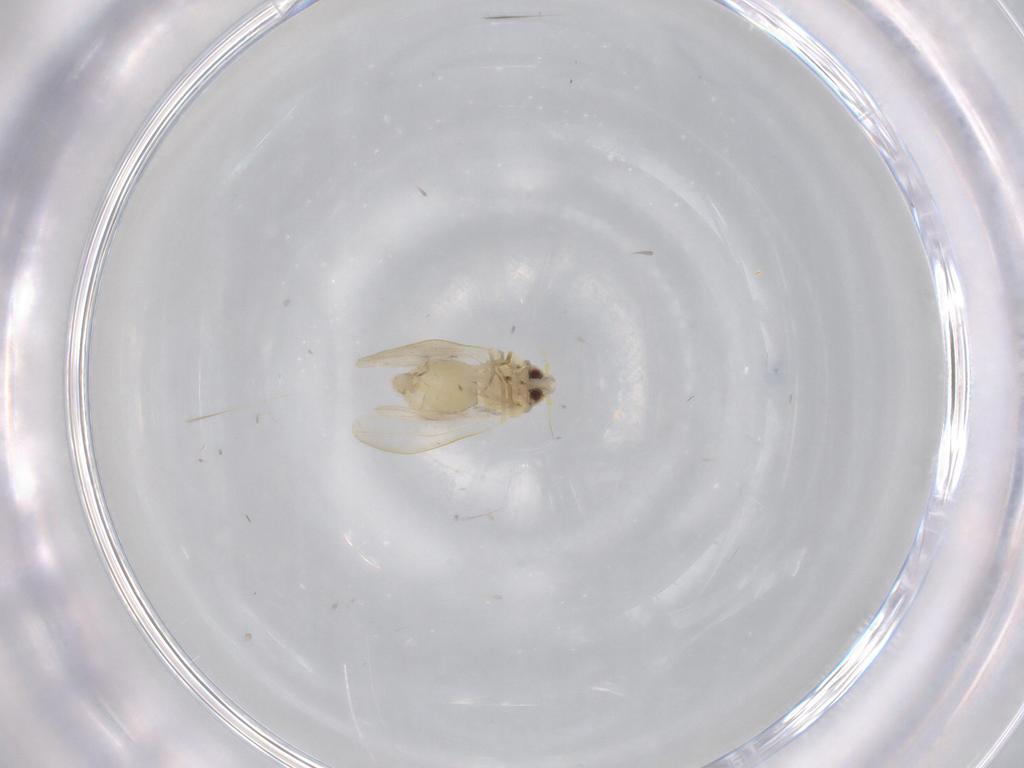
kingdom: Animalia
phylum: Arthropoda
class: Insecta
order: Hemiptera
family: Aleyrodidae
